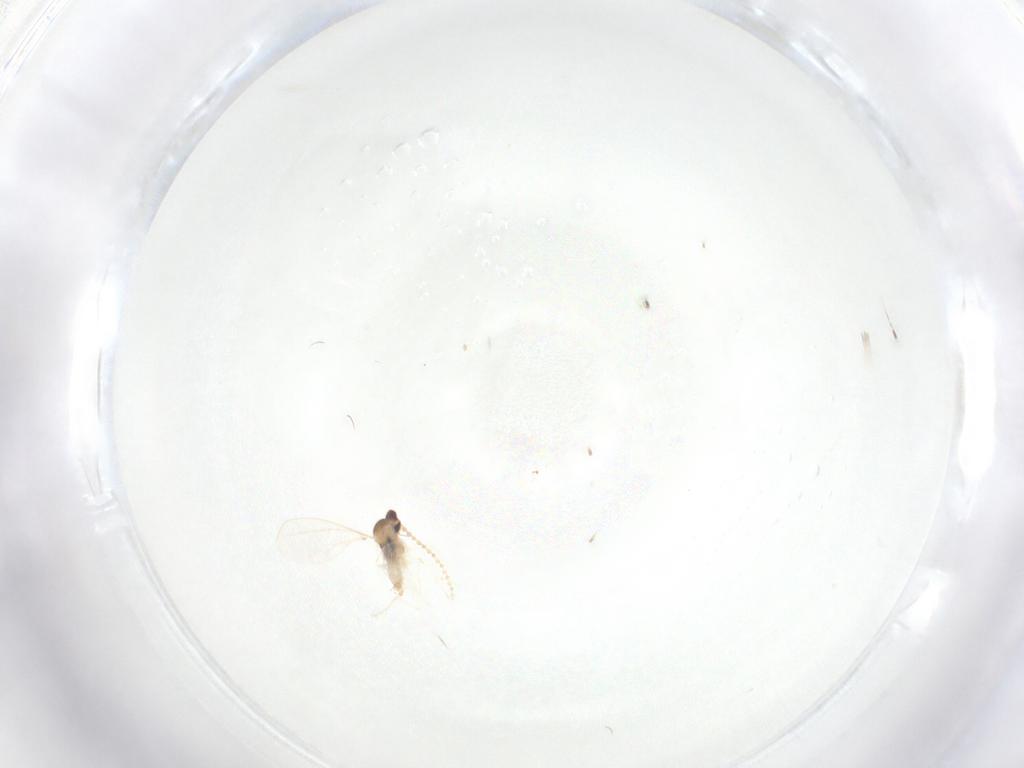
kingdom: Animalia
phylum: Arthropoda
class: Insecta
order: Diptera
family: Cecidomyiidae
